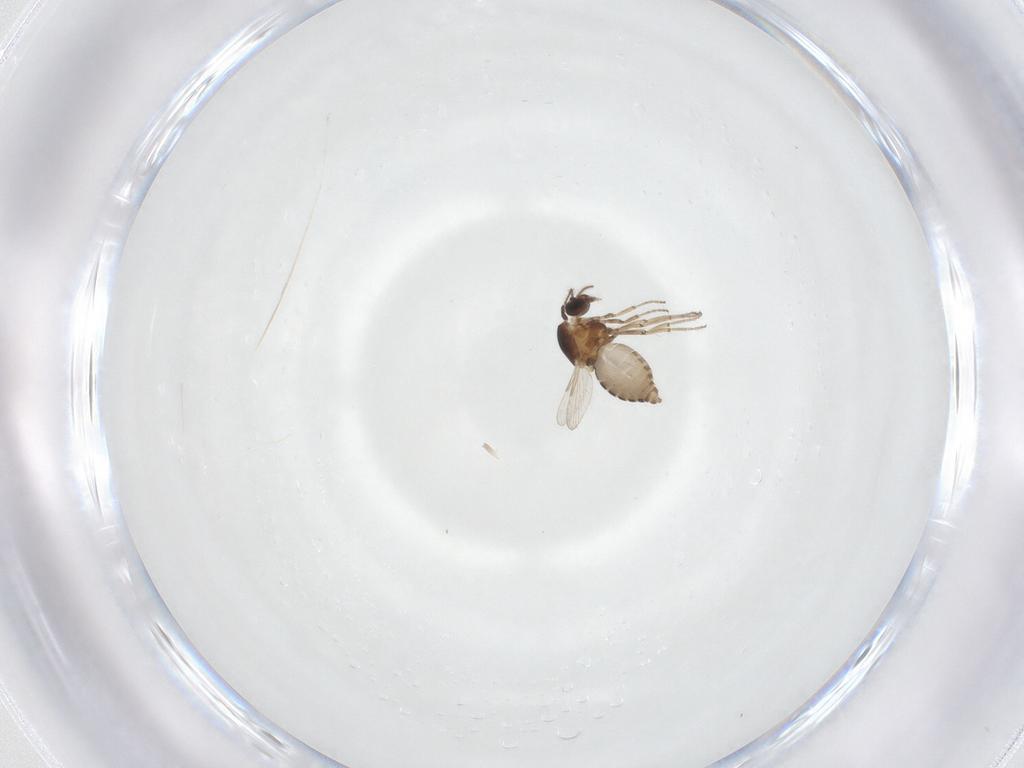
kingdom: Animalia
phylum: Arthropoda
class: Insecta
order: Diptera
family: Ceratopogonidae
